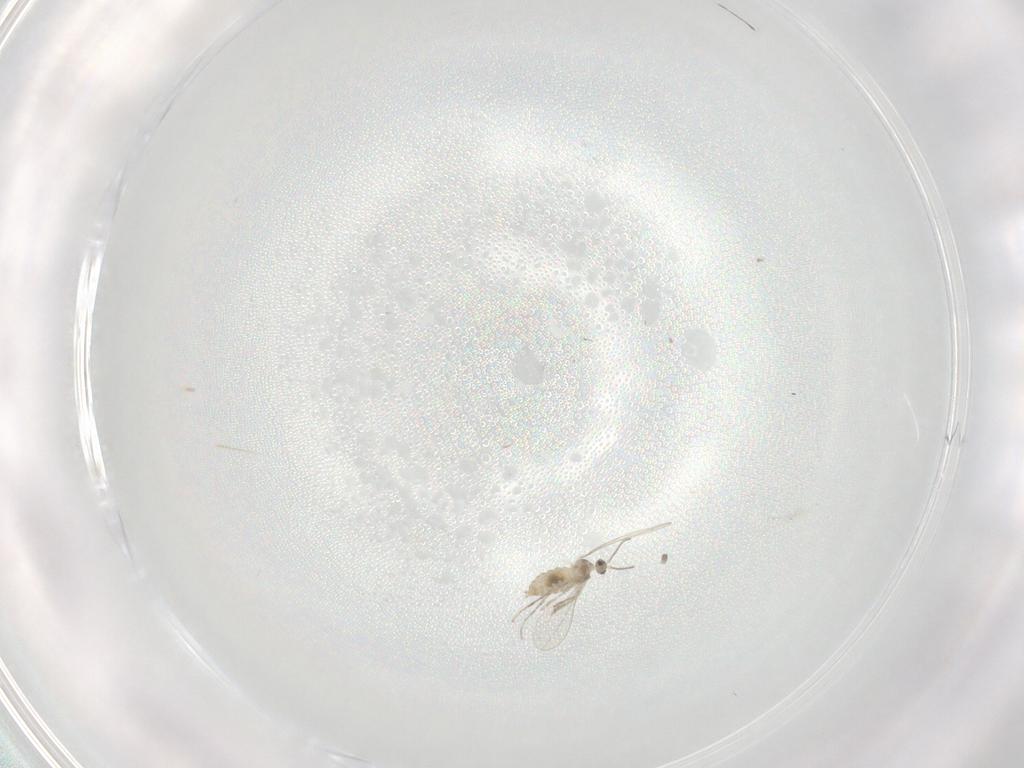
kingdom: Animalia
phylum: Arthropoda
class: Insecta
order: Diptera
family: Cecidomyiidae
